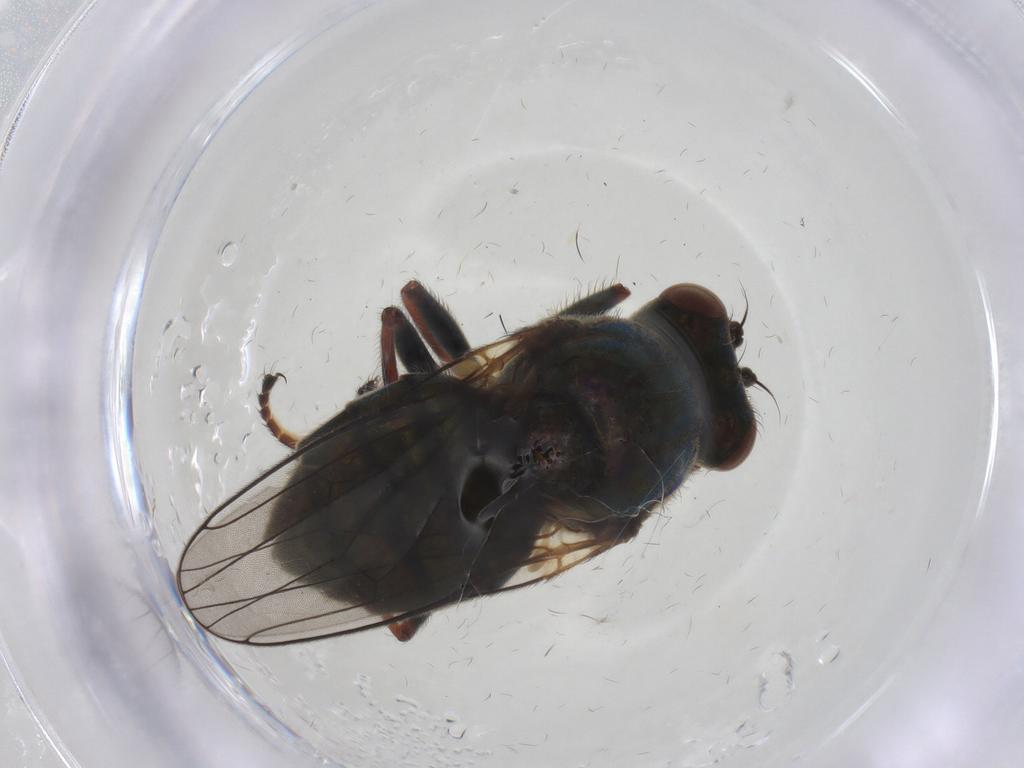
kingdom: Animalia
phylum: Arthropoda
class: Insecta
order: Diptera
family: Ephydridae
